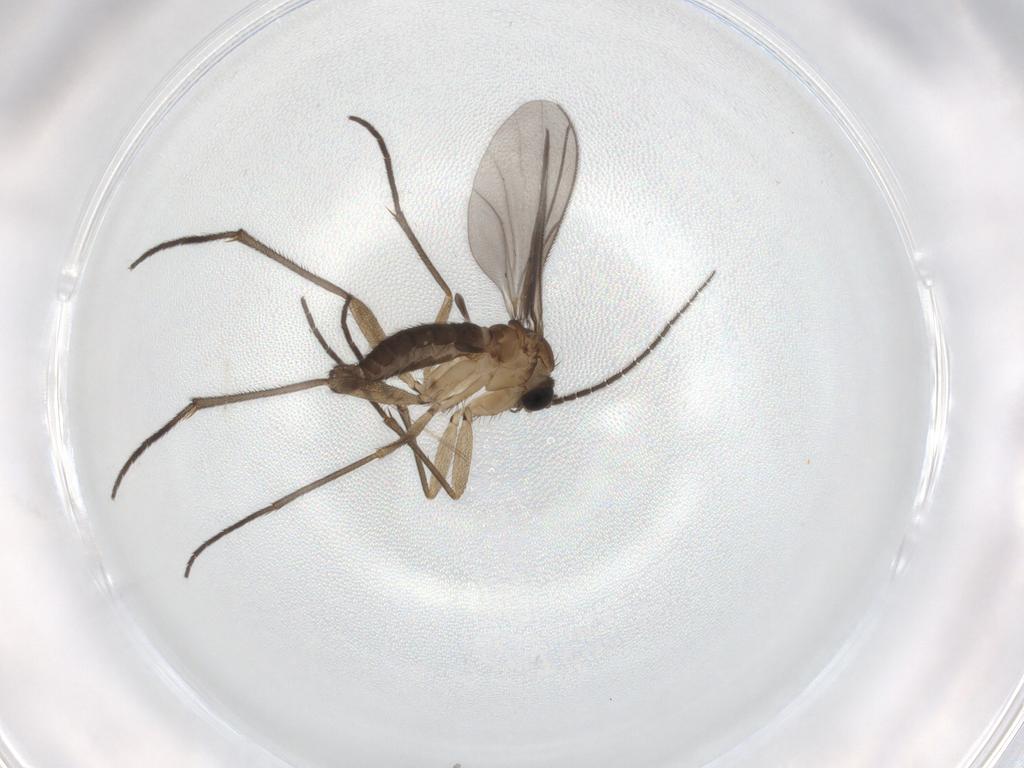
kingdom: Animalia
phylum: Arthropoda
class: Insecta
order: Diptera
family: Sciaridae
